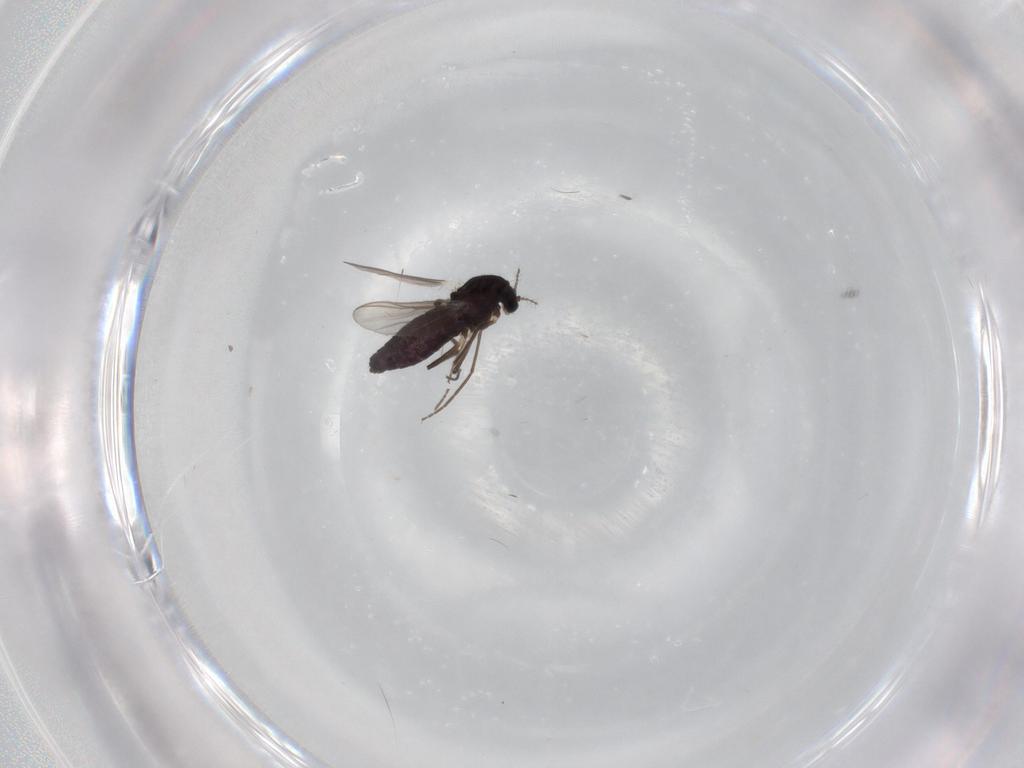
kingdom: Animalia
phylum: Arthropoda
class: Insecta
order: Diptera
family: Chironomidae
